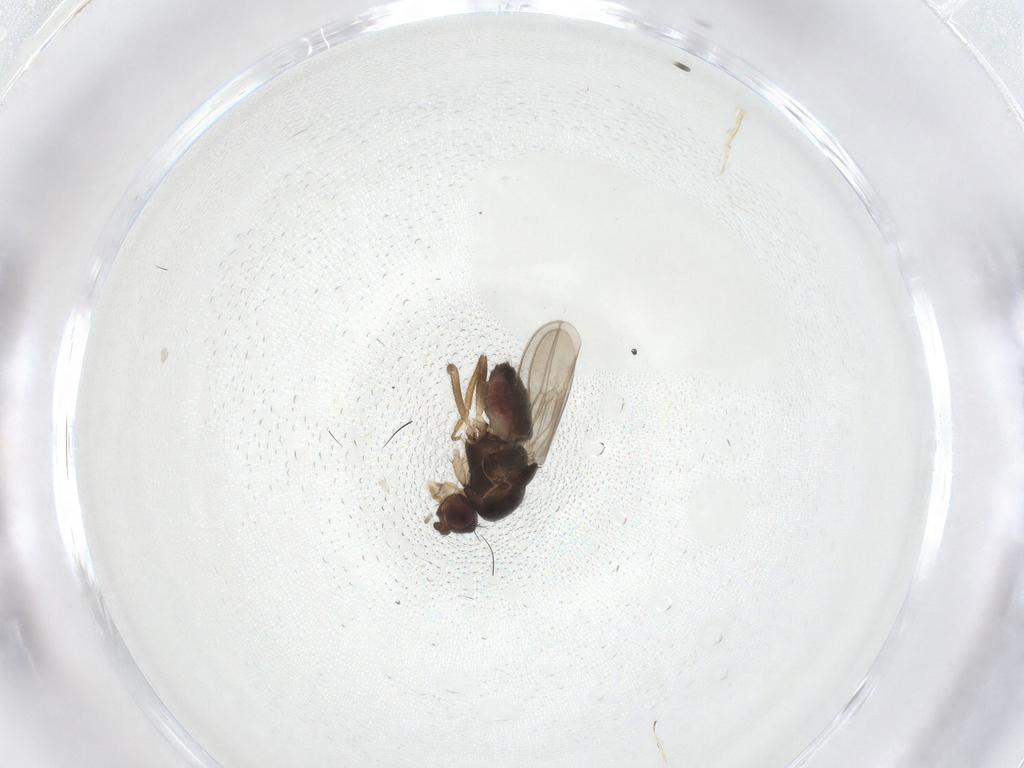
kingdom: Animalia
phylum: Arthropoda
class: Insecta
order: Diptera
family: Sphaeroceridae
